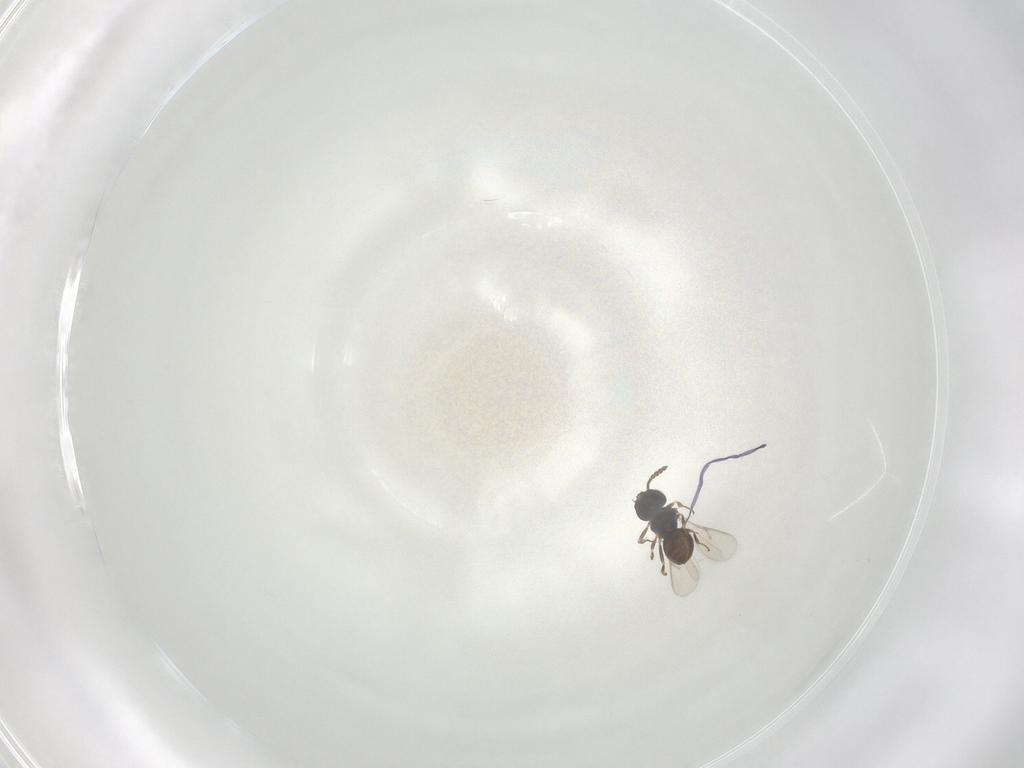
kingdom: Animalia
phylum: Arthropoda
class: Insecta
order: Hymenoptera
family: Scelionidae
